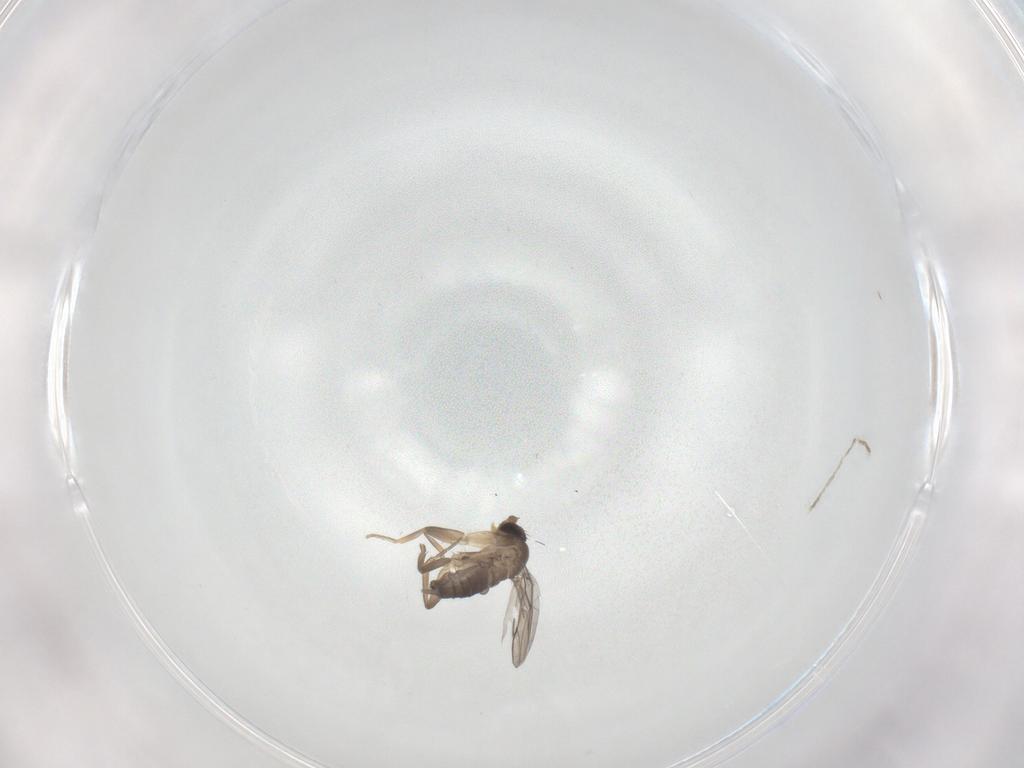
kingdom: Animalia
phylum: Arthropoda
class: Insecta
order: Diptera
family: Phoridae
